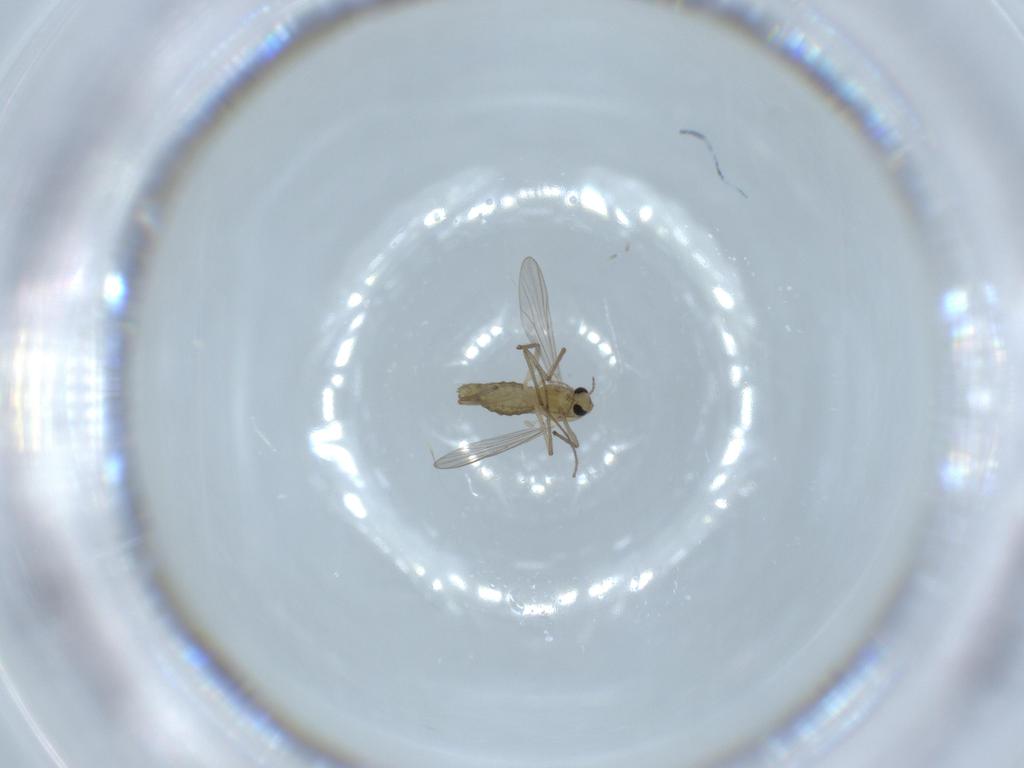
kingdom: Animalia
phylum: Arthropoda
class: Insecta
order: Diptera
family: Chironomidae
